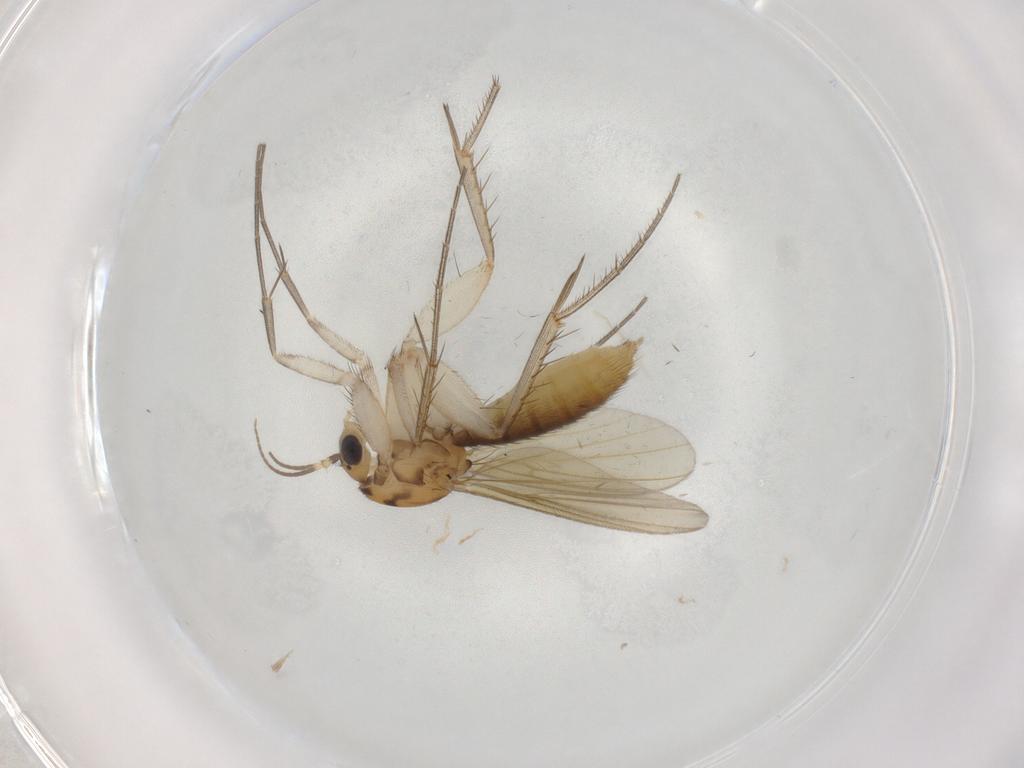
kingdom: Animalia
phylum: Arthropoda
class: Insecta
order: Diptera
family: Mycetophilidae
